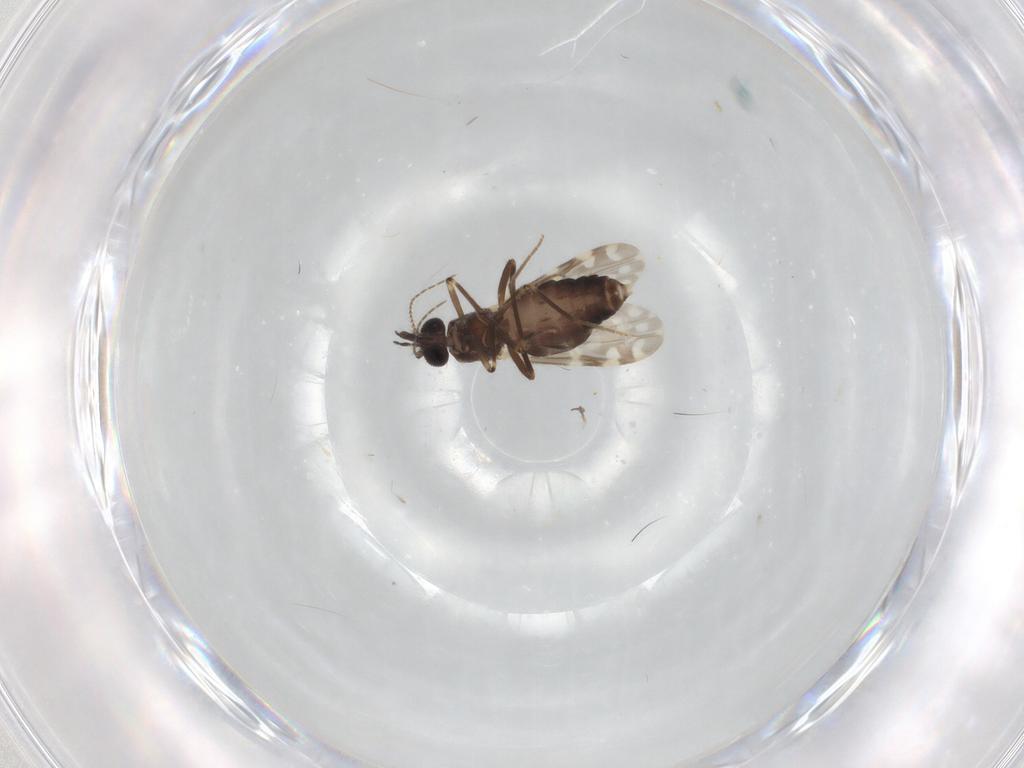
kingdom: Animalia
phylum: Arthropoda
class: Insecta
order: Diptera
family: Ceratopogonidae
